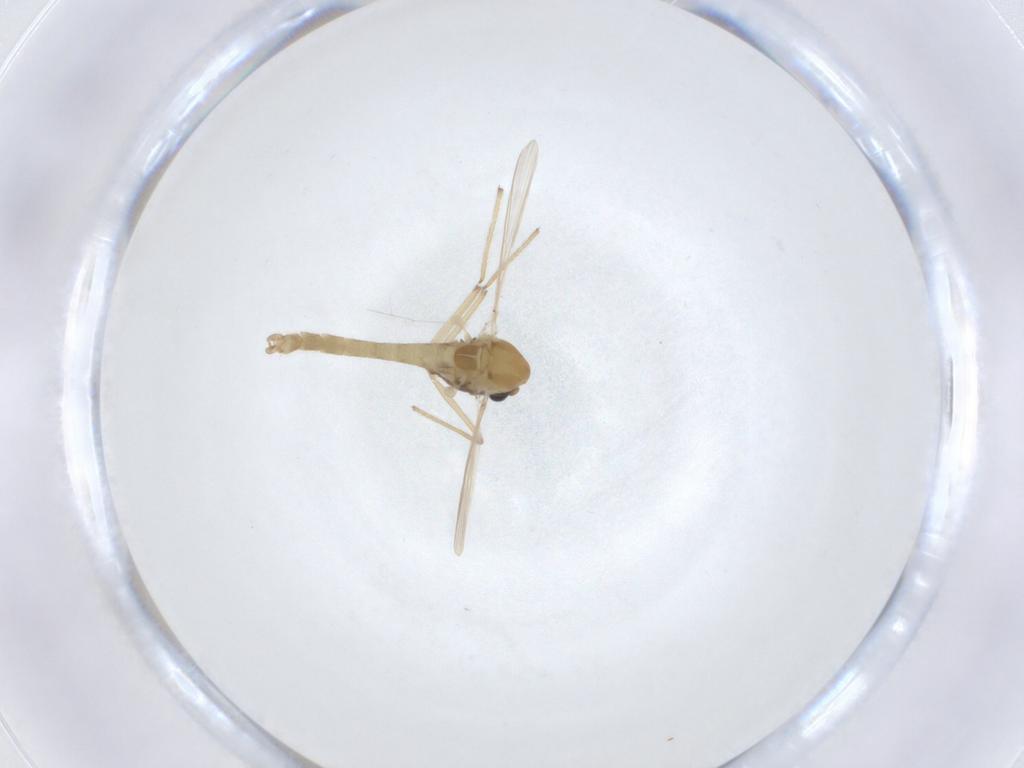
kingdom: Animalia
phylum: Arthropoda
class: Insecta
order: Diptera
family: Chironomidae
